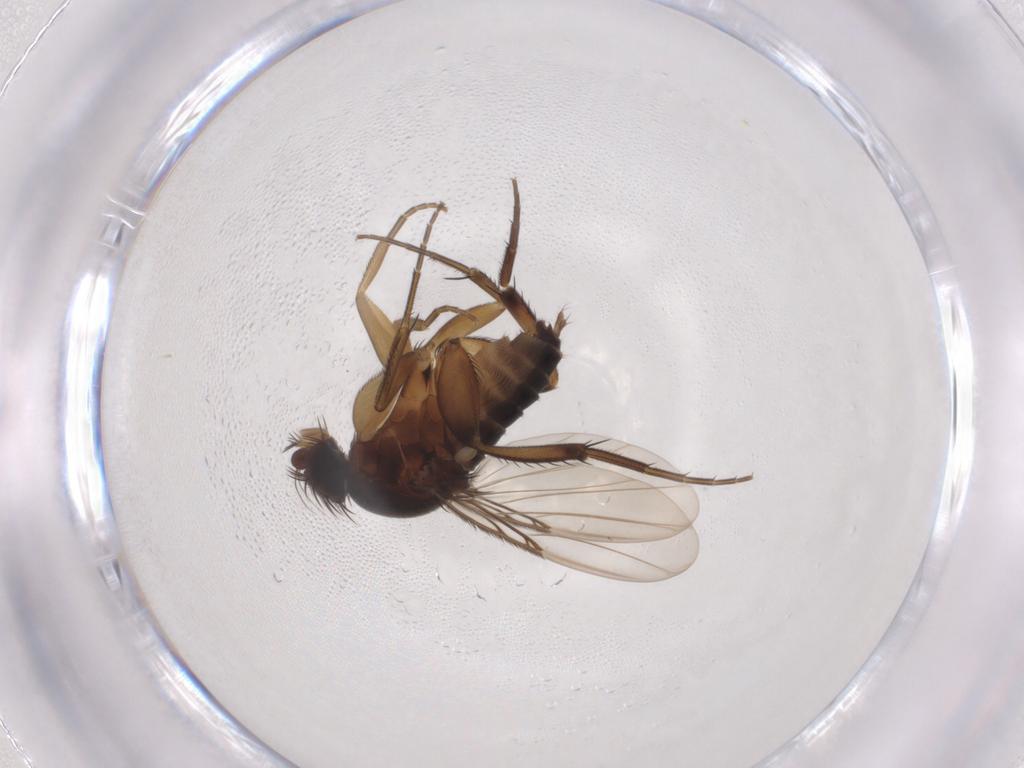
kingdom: Animalia
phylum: Arthropoda
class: Insecta
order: Diptera
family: Phoridae
